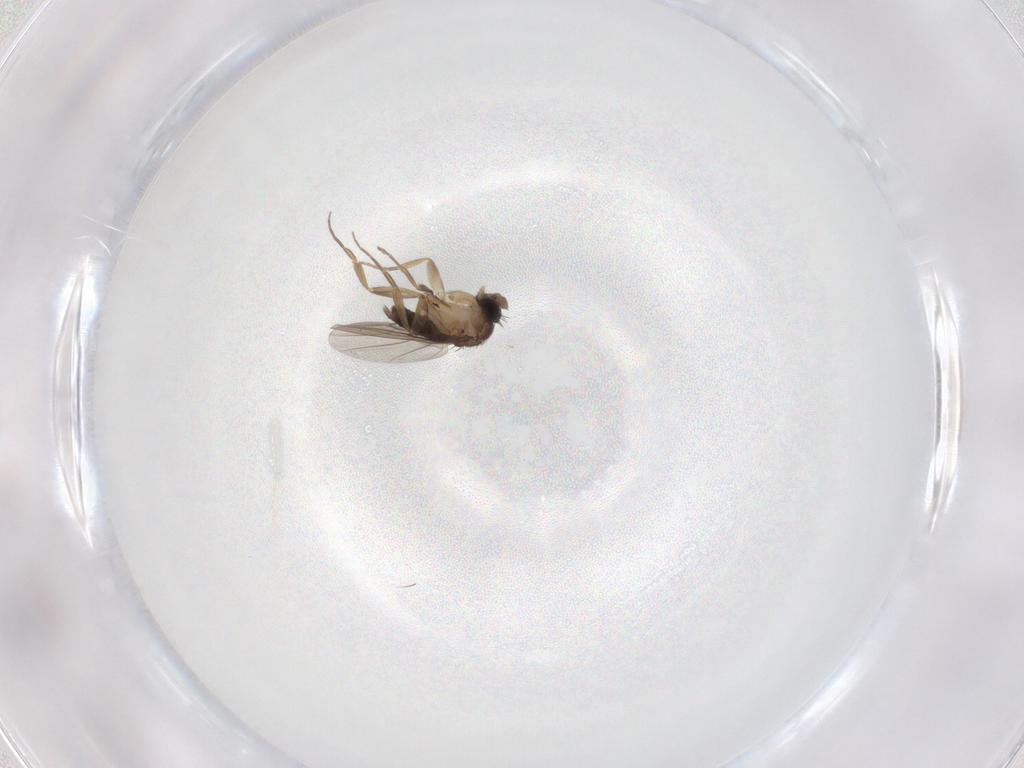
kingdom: Animalia
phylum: Arthropoda
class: Insecta
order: Diptera
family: Phoridae
